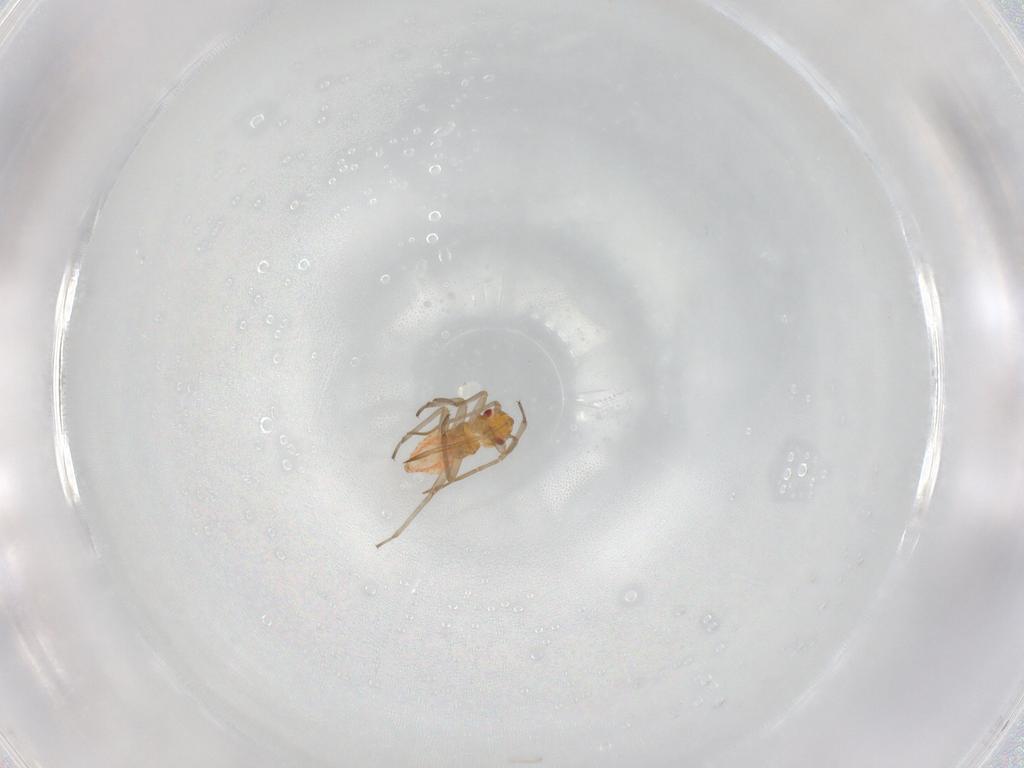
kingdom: Animalia
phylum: Arthropoda
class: Insecta
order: Hemiptera
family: Miridae
